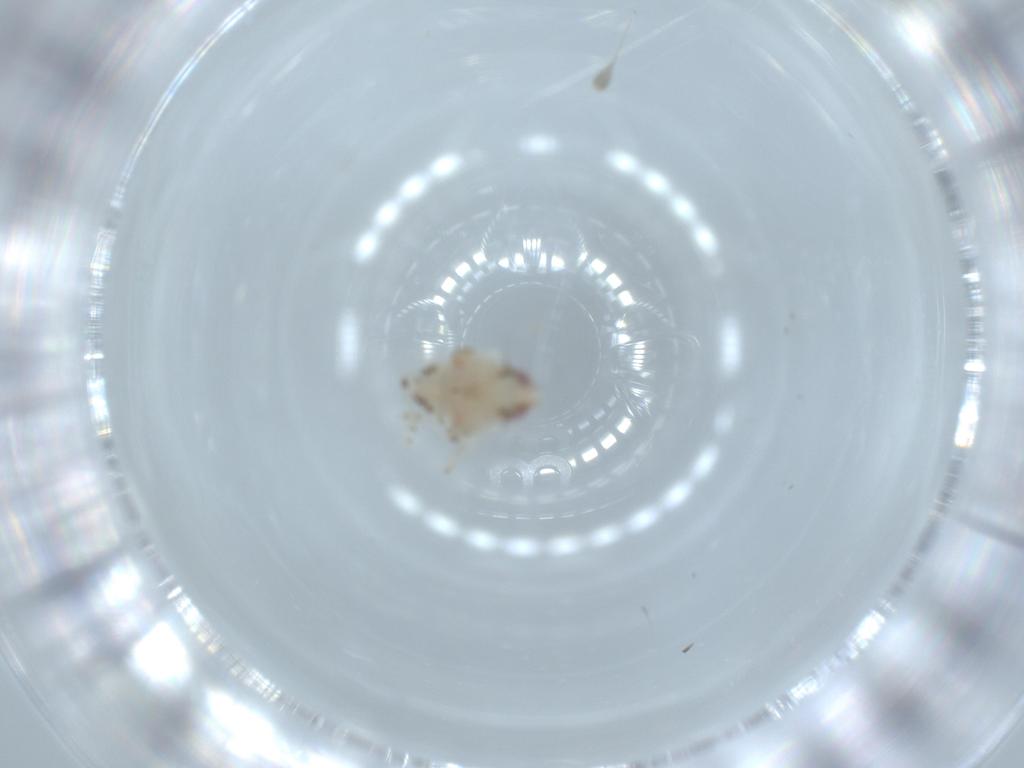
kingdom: Animalia
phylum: Arthropoda
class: Insecta
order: Hemiptera
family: Nogodinidae
